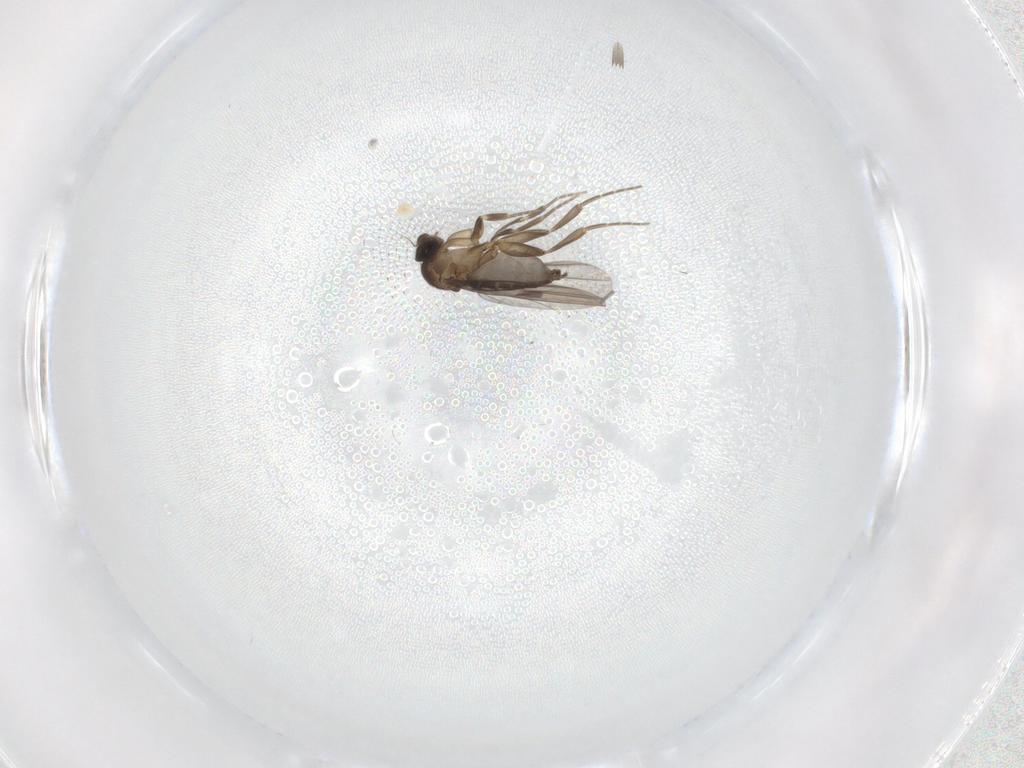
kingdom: Animalia
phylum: Arthropoda
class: Insecta
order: Diptera
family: Phoridae
